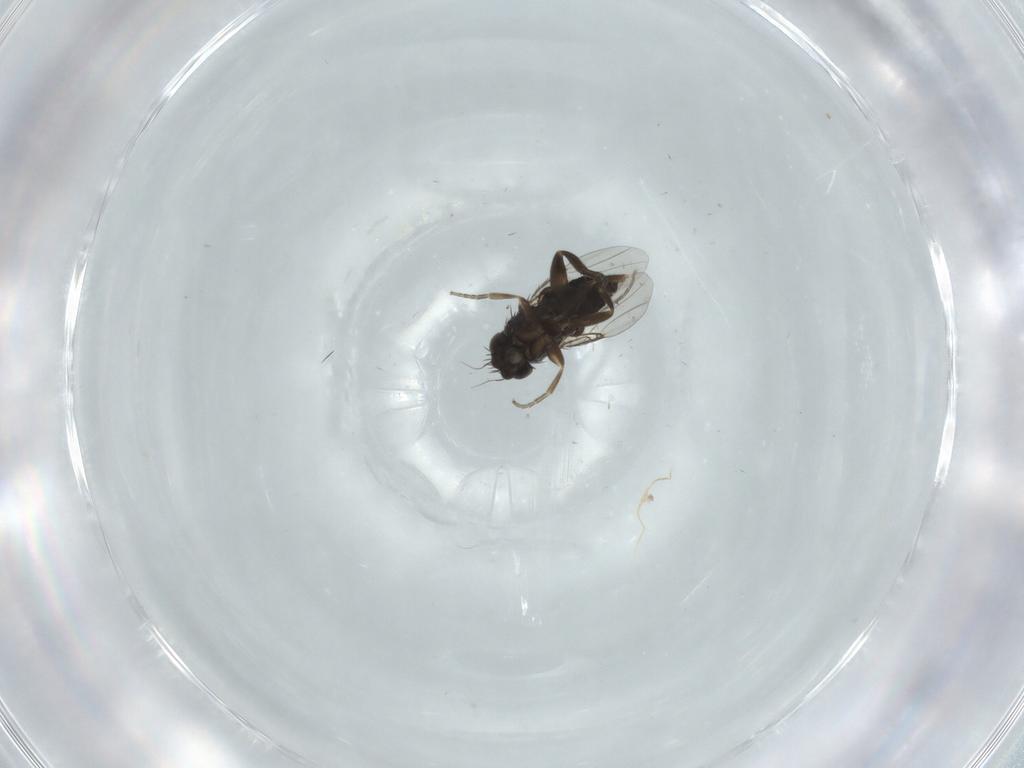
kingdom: Animalia
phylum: Arthropoda
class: Insecta
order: Diptera
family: Phoridae
